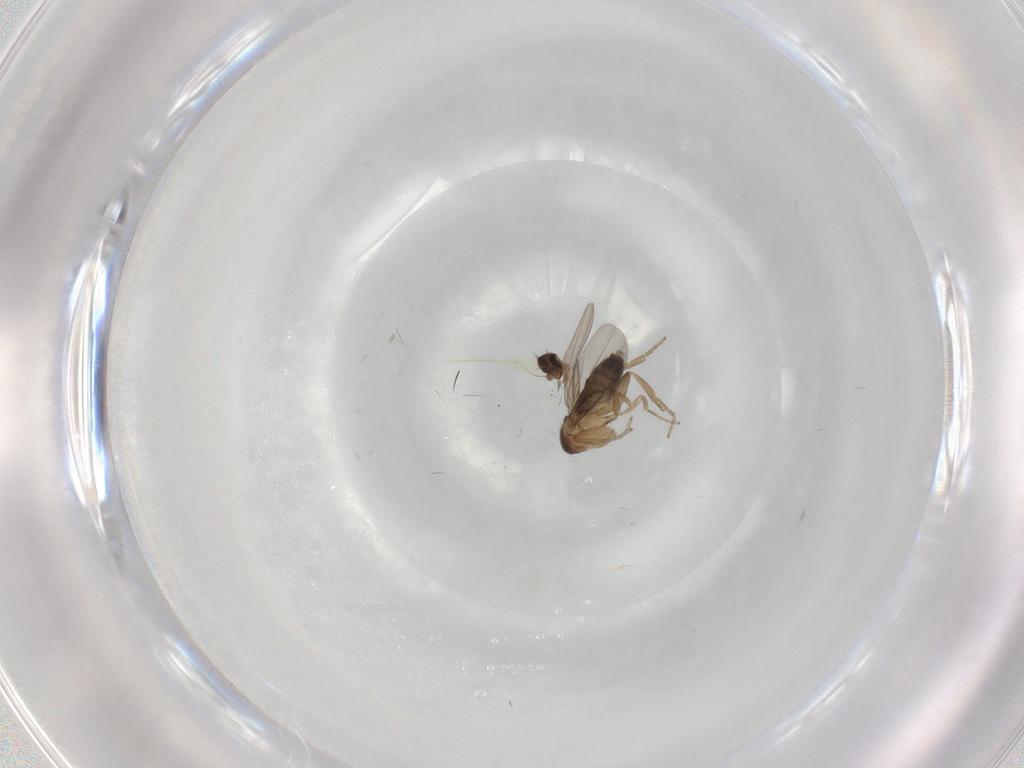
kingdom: Animalia
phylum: Arthropoda
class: Insecta
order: Diptera
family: Phoridae
